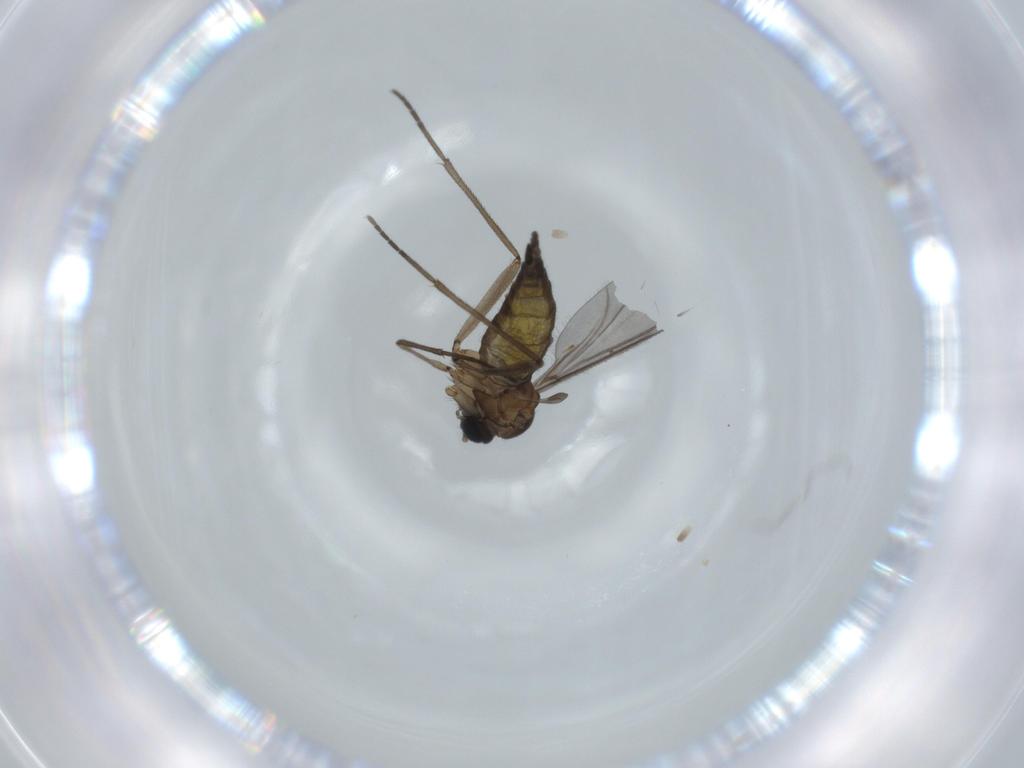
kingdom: Animalia
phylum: Arthropoda
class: Insecta
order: Diptera
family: Sciaridae
